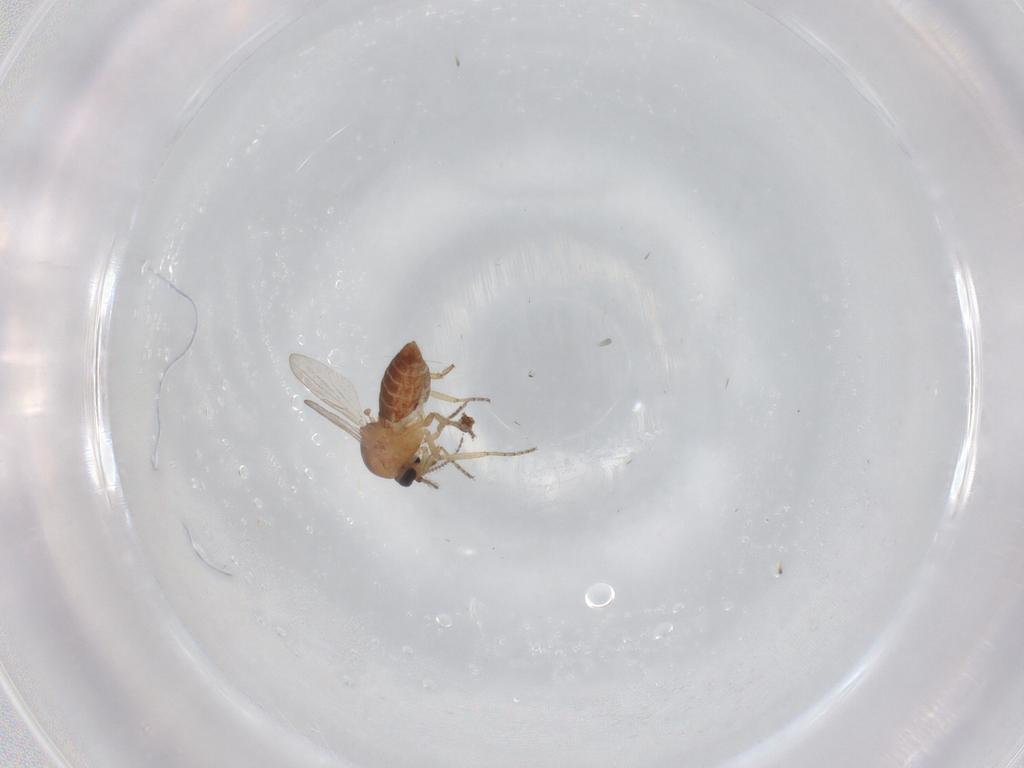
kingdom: Animalia
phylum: Arthropoda
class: Insecta
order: Diptera
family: Ceratopogonidae
